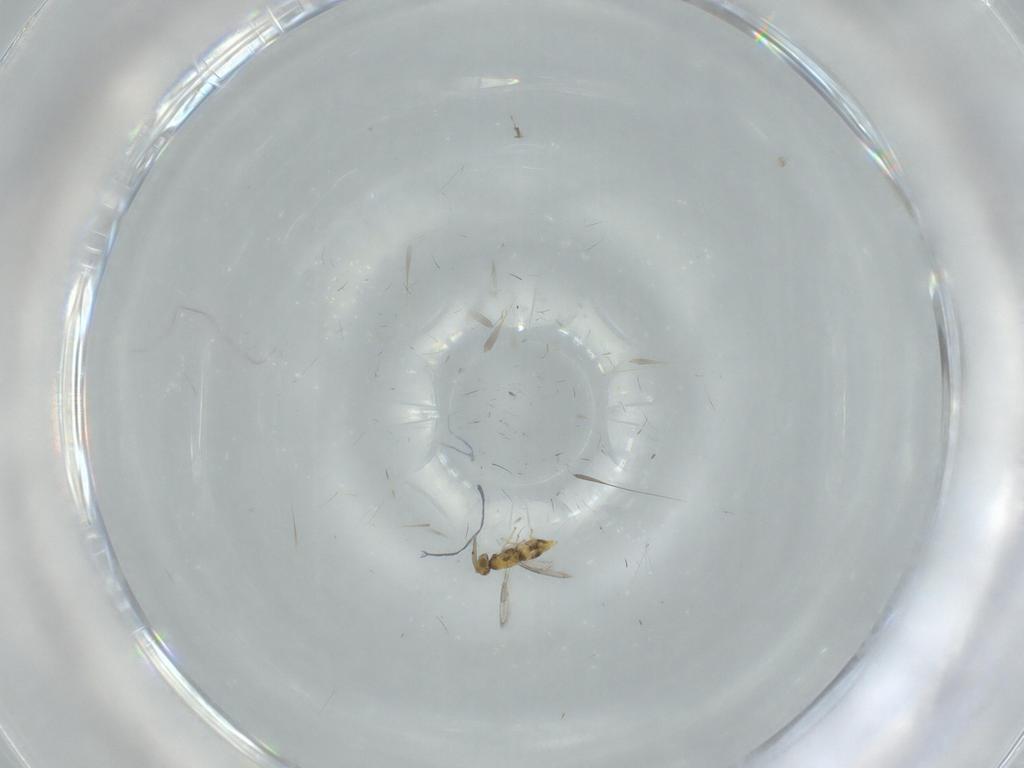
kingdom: Animalia
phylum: Arthropoda
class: Insecta
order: Hymenoptera
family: Aphelinidae
